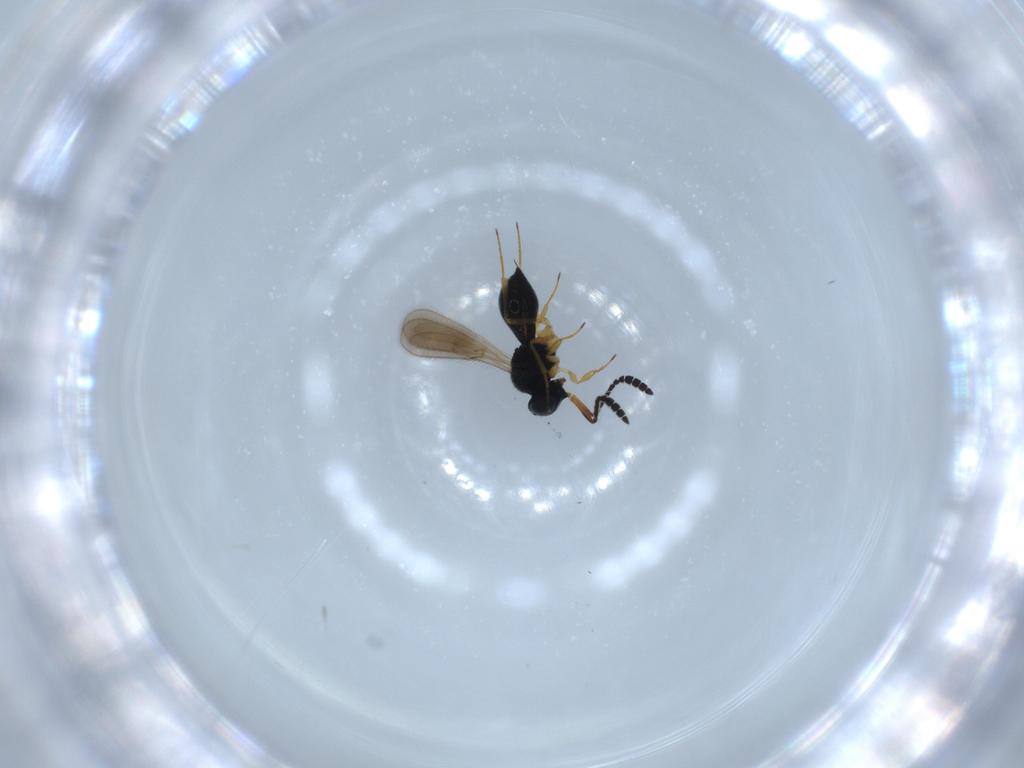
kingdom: Animalia
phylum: Arthropoda
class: Insecta
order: Hymenoptera
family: Scelionidae
